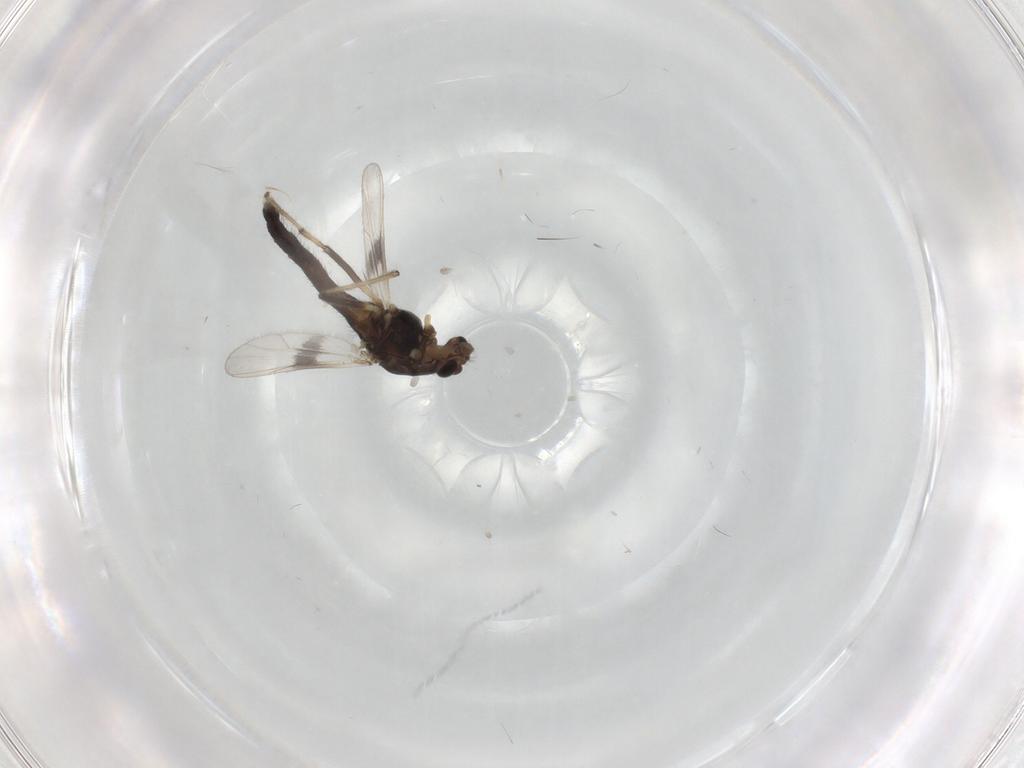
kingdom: Animalia
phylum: Arthropoda
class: Insecta
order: Diptera
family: Chironomidae
